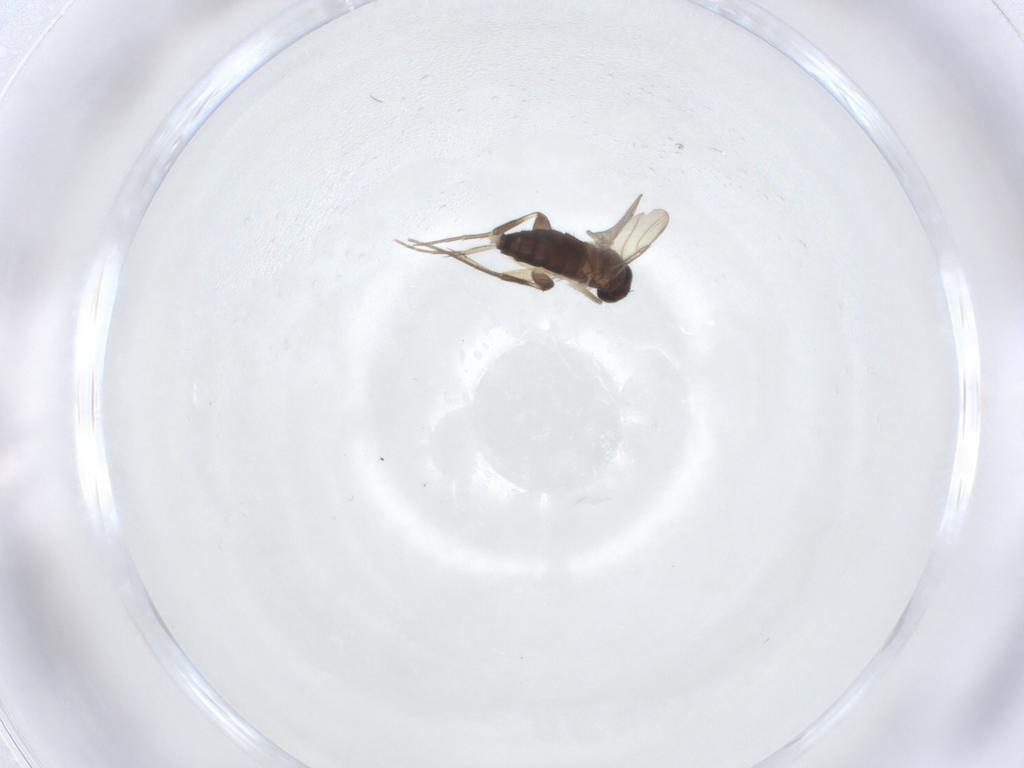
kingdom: Animalia
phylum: Arthropoda
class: Insecta
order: Diptera
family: Phoridae
